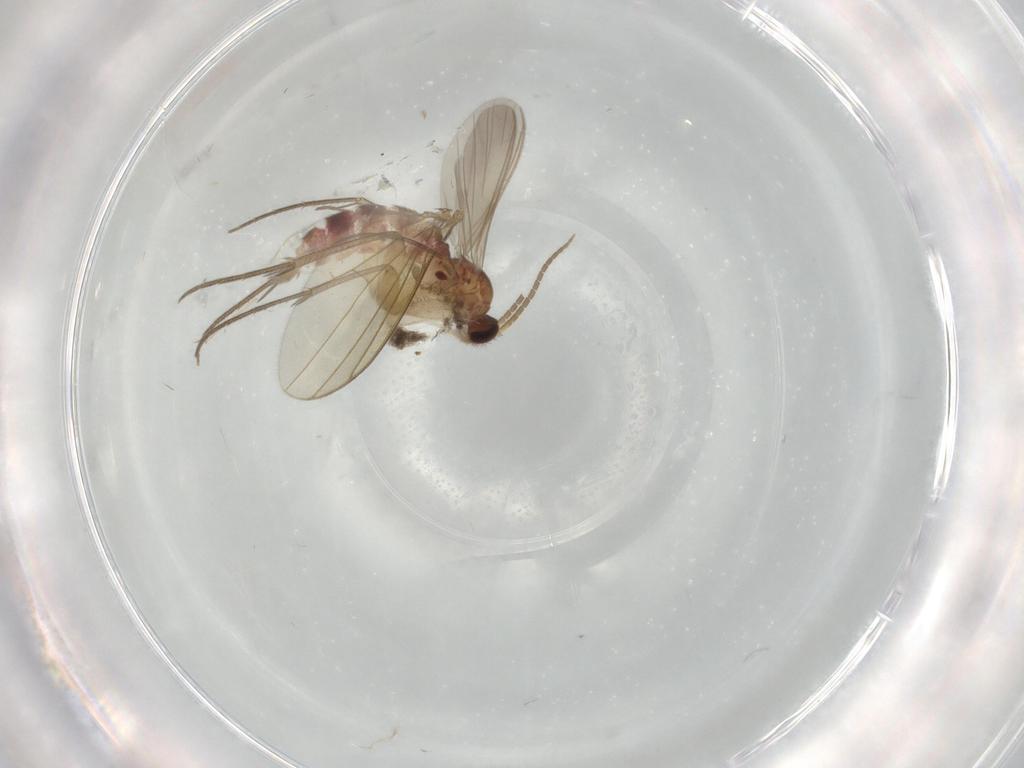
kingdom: Animalia
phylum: Arthropoda
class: Insecta
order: Diptera
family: Mycetophilidae
